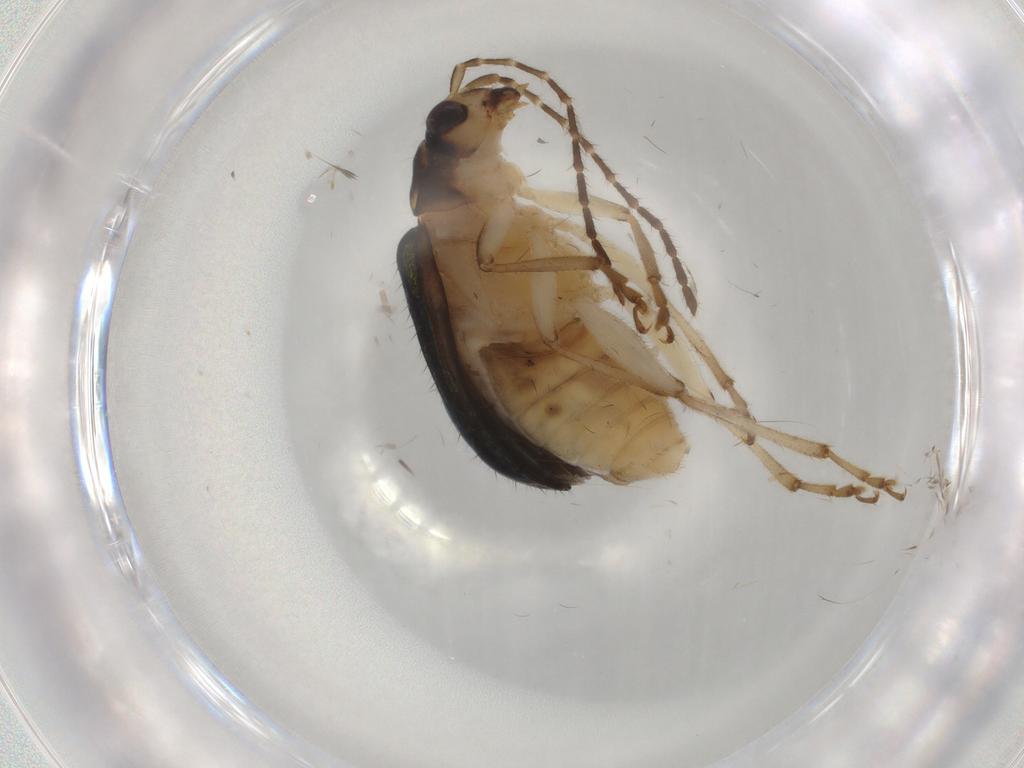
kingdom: Animalia
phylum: Arthropoda
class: Insecta
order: Coleoptera
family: Chrysomelidae
